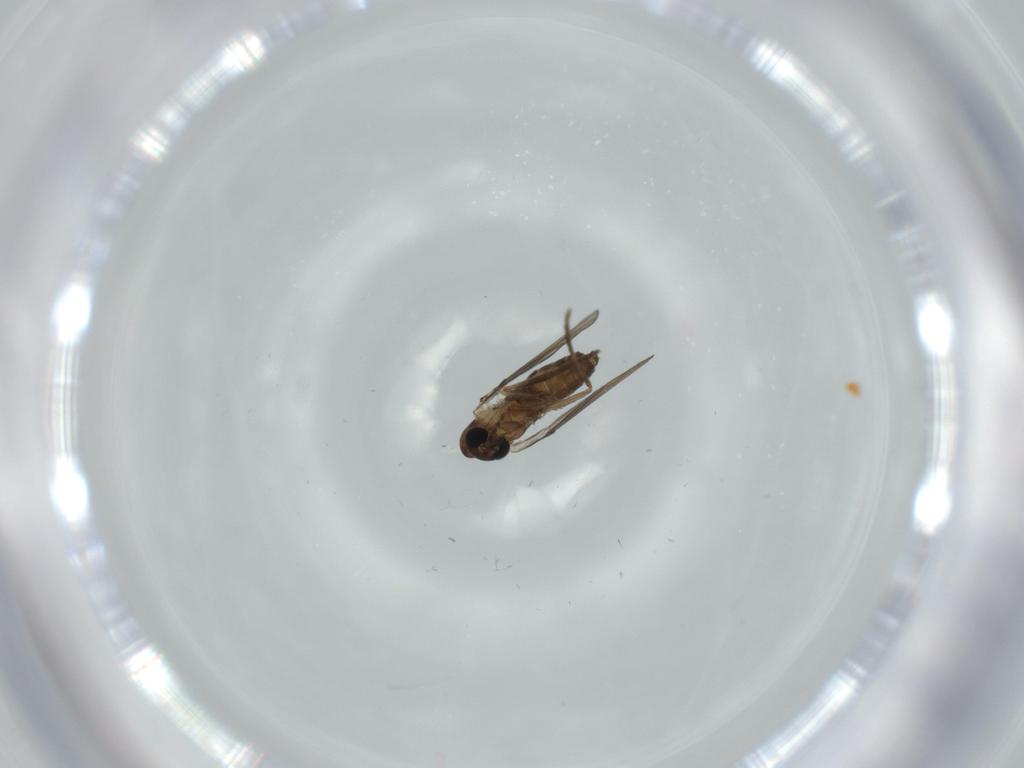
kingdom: Animalia
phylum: Arthropoda
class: Insecta
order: Diptera
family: Psychodidae
